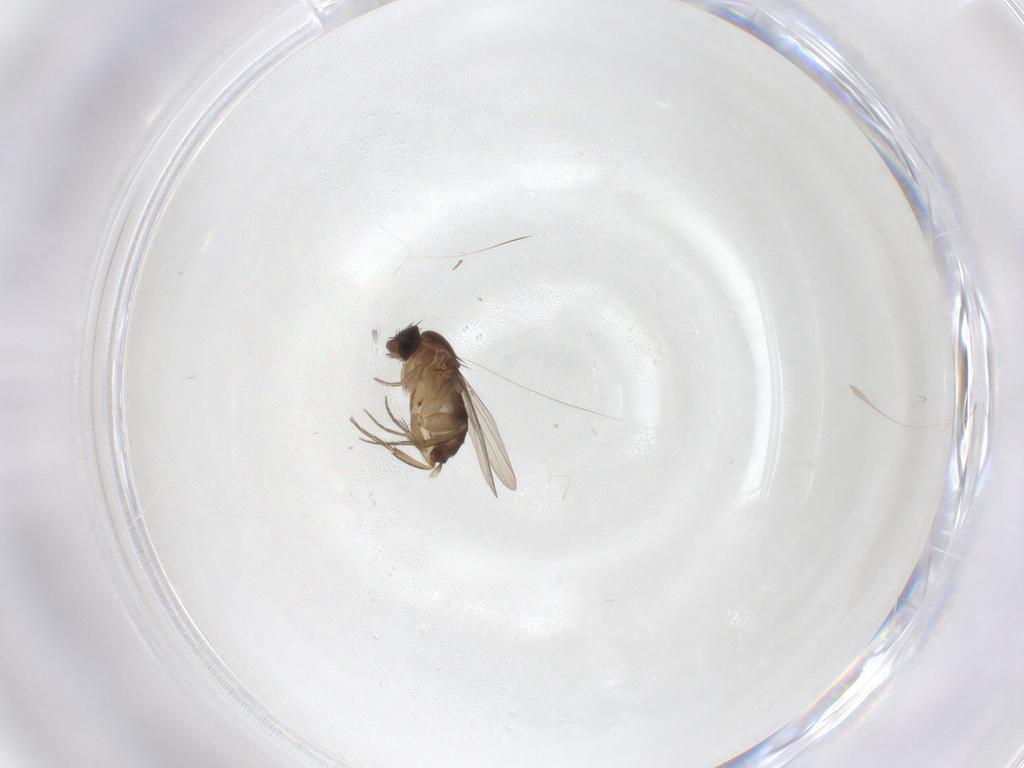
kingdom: Animalia
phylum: Arthropoda
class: Insecta
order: Diptera
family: Phoridae
